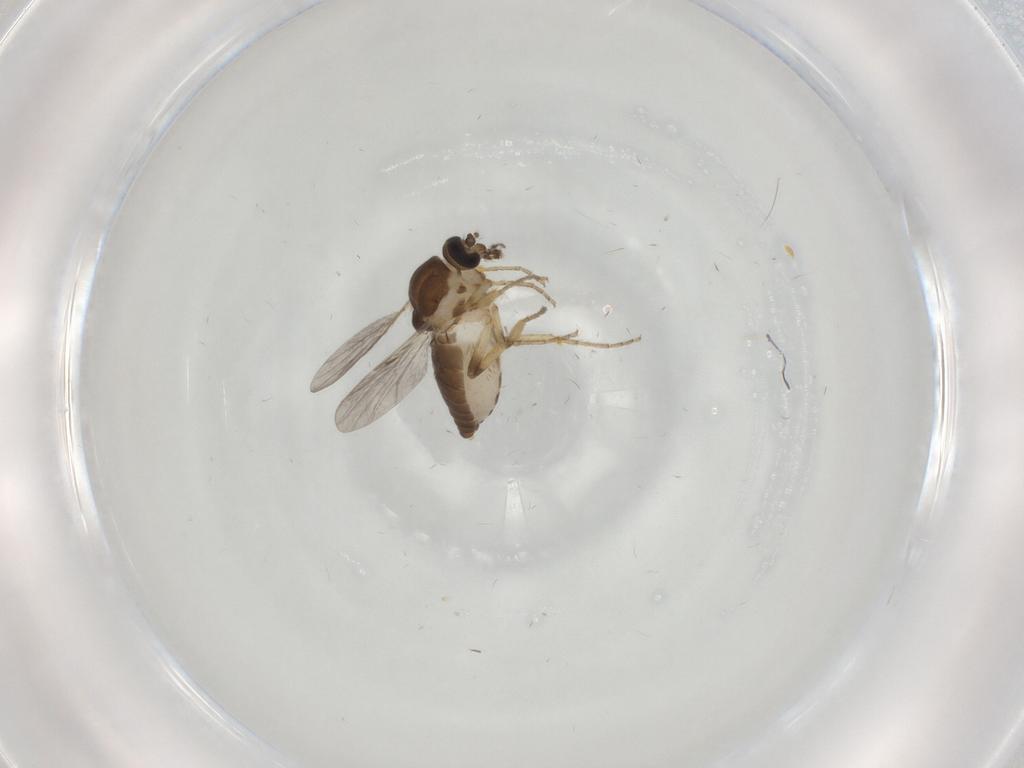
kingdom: Animalia
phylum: Arthropoda
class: Insecta
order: Diptera
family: Ceratopogonidae
